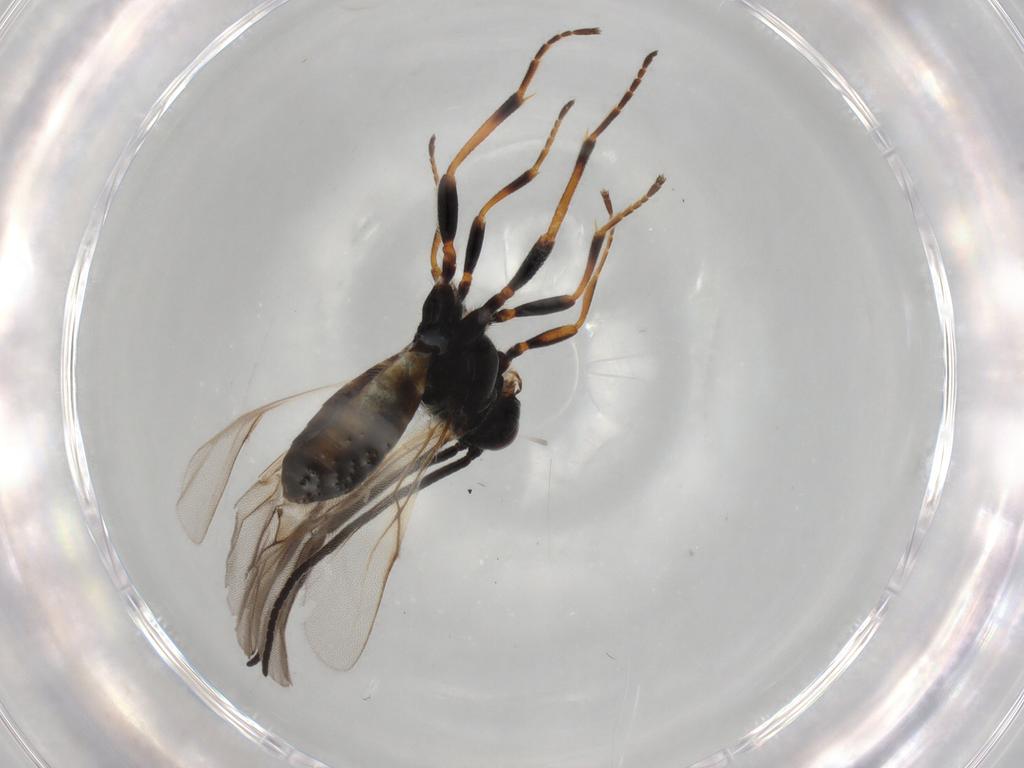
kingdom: Animalia
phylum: Arthropoda
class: Insecta
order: Hymenoptera
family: Braconidae
